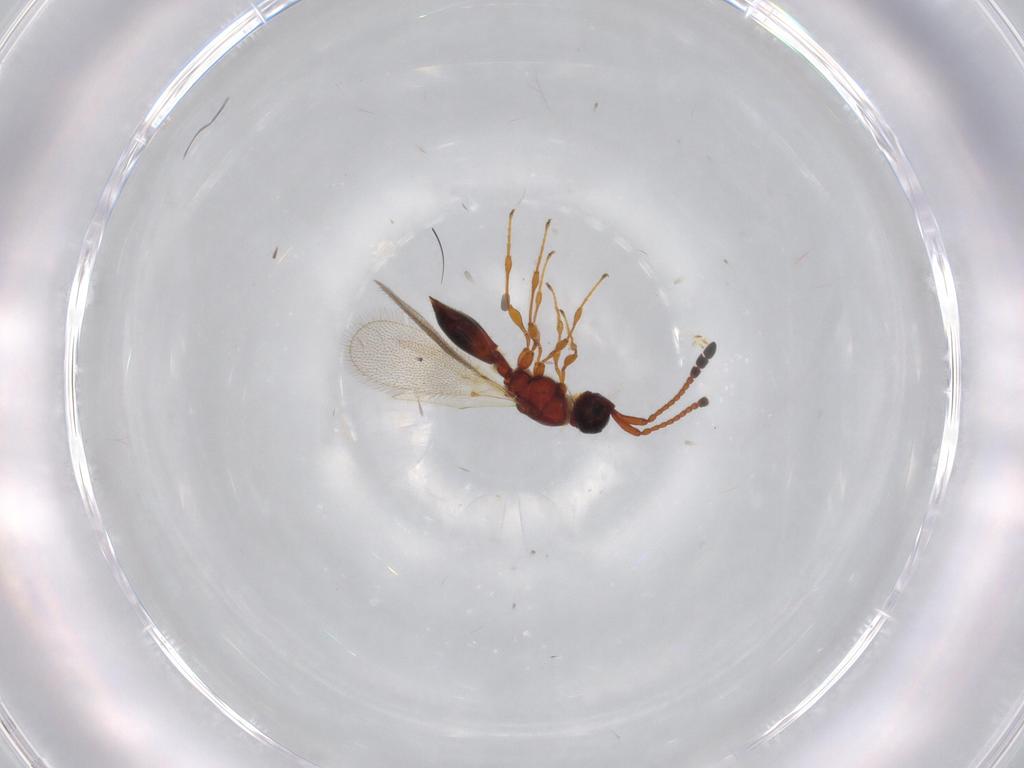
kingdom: Animalia
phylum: Arthropoda
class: Insecta
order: Hymenoptera
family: Diapriidae
